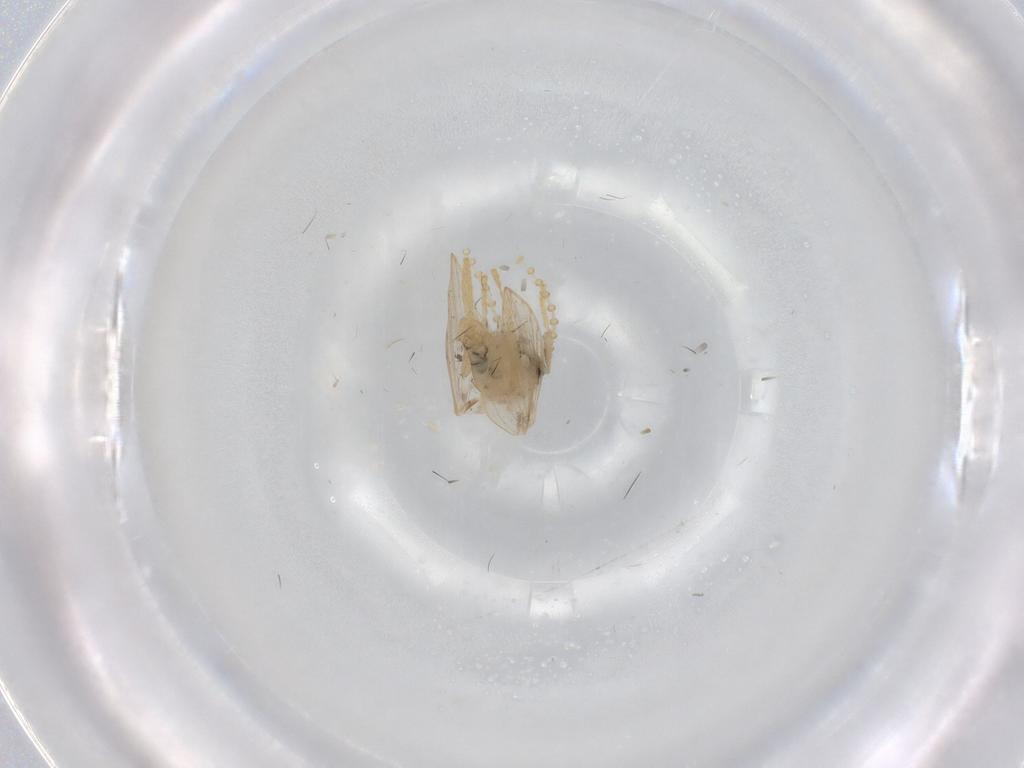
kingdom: Animalia
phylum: Arthropoda
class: Insecta
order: Diptera
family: Psychodidae
